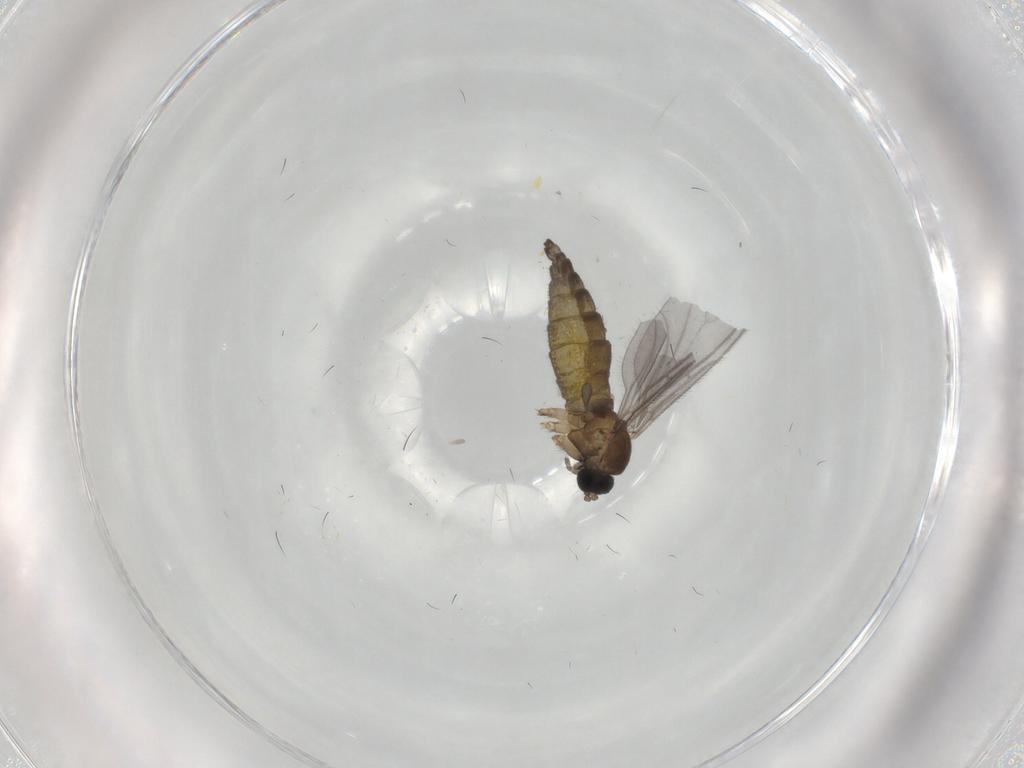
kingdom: Animalia
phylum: Arthropoda
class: Insecta
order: Diptera
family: Sciaridae
